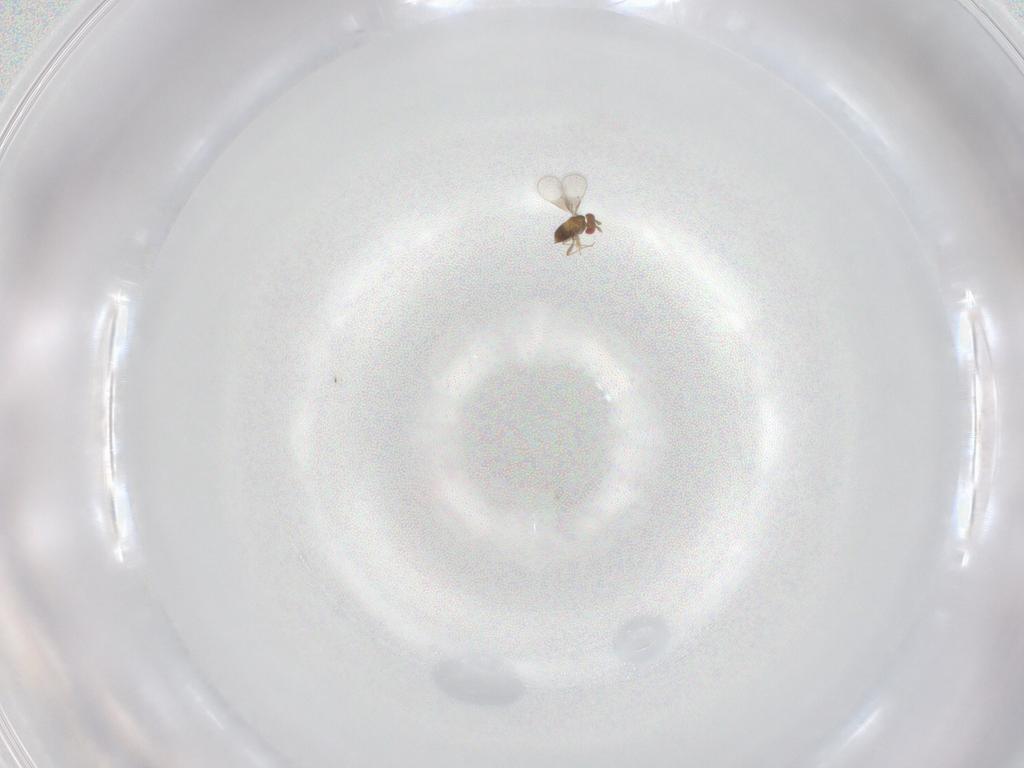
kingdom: Animalia
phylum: Arthropoda
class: Insecta
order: Hymenoptera
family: Trichogrammatidae
